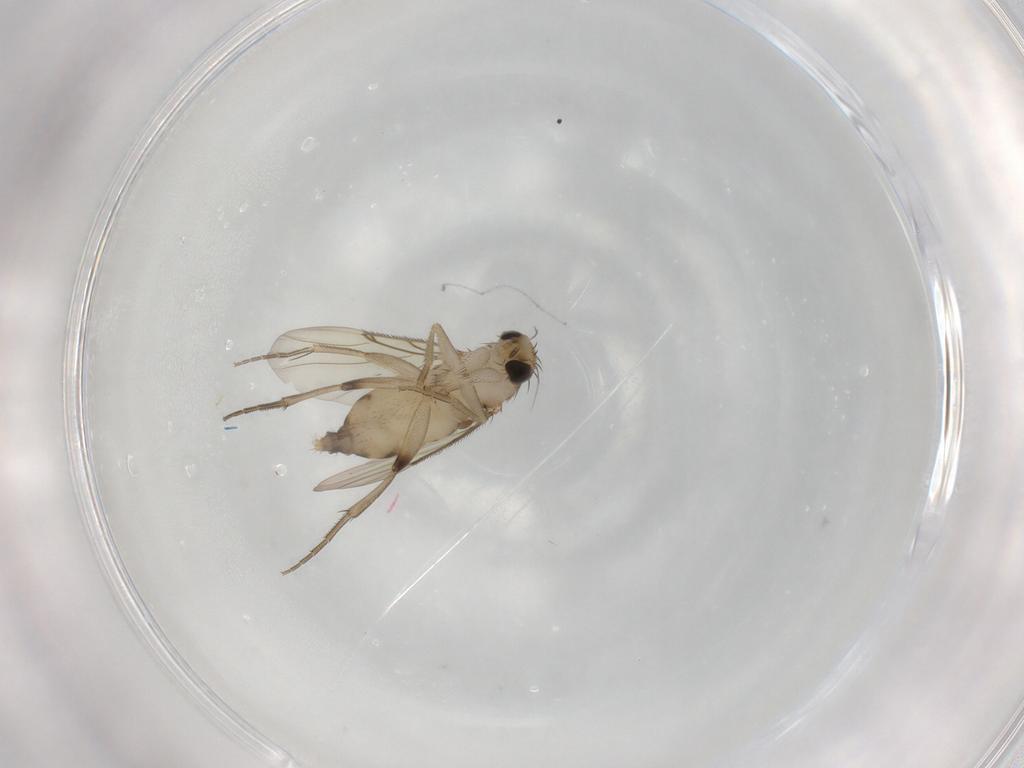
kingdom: Animalia
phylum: Arthropoda
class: Insecta
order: Diptera
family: Phoridae
